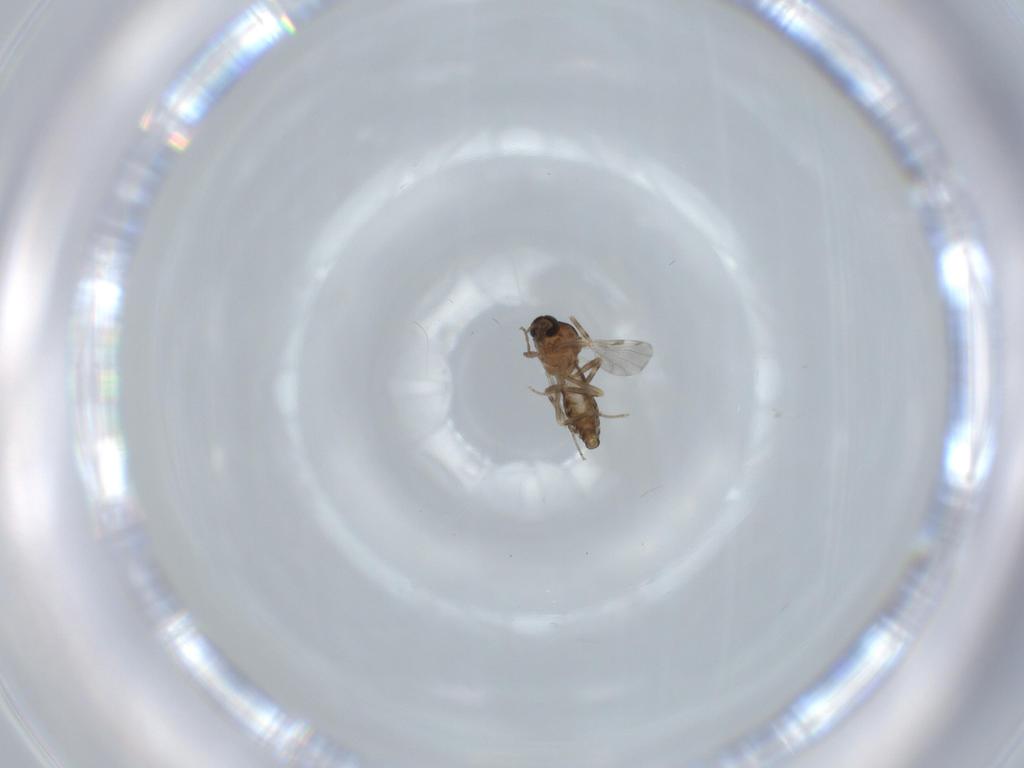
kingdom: Animalia
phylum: Arthropoda
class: Insecta
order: Diptera
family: Ceratopogonidae
